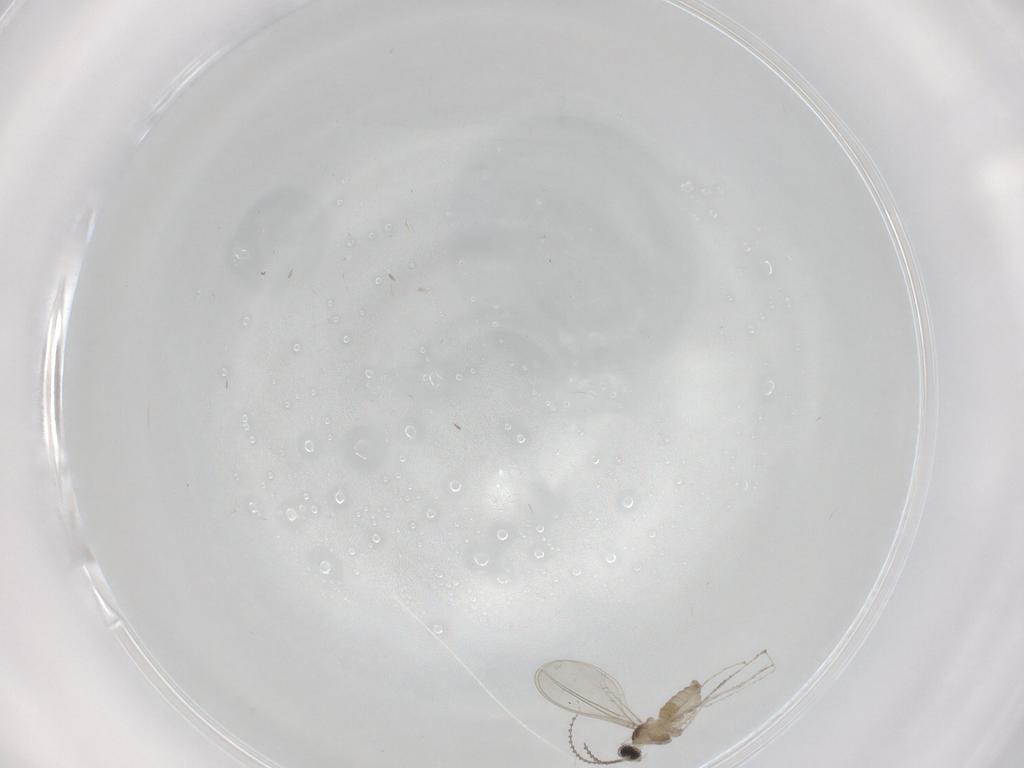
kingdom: Animalia
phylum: Arthropoda
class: Insecta
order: Diptera
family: Cecidomyiidae
